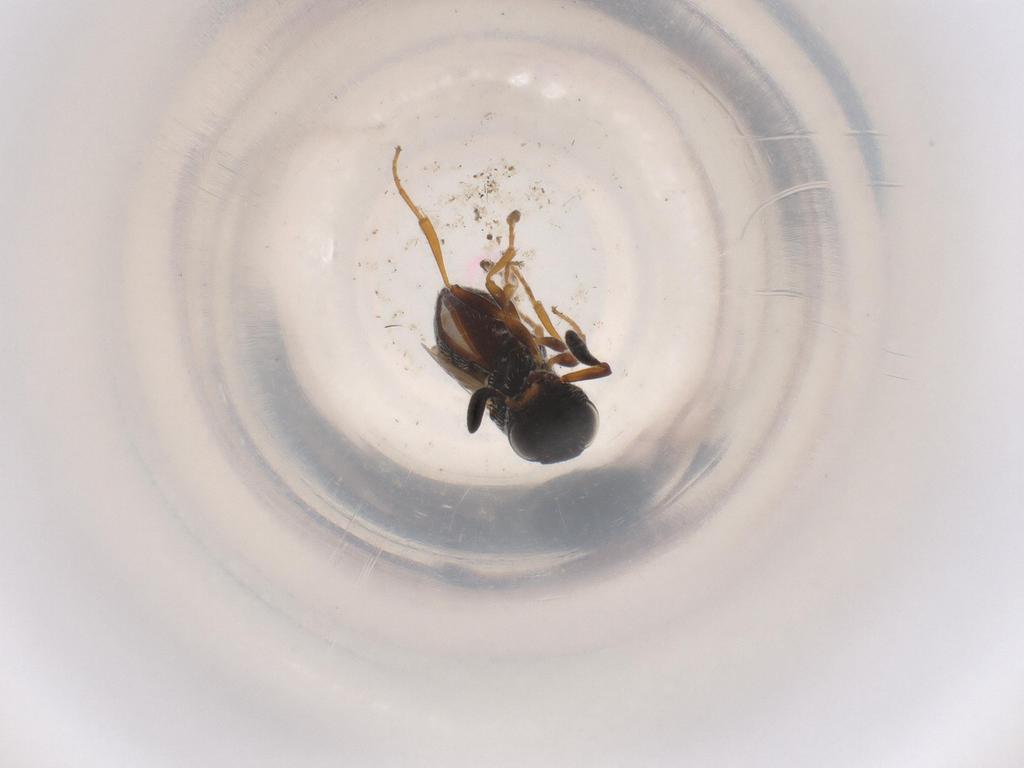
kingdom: Animalia
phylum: Arthropoda
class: Insecta
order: Hymenoptera
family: Scelionidae
